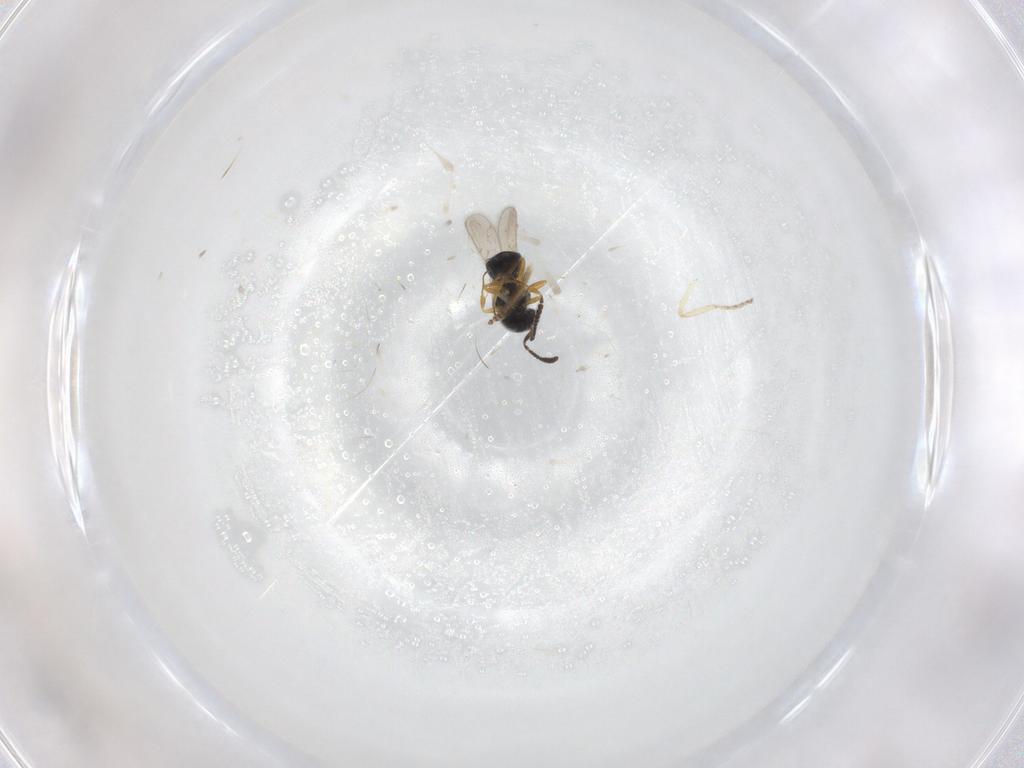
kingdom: Animalia
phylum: Arthropoda
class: Insecta
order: Hymenoptera
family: Scelionidae
